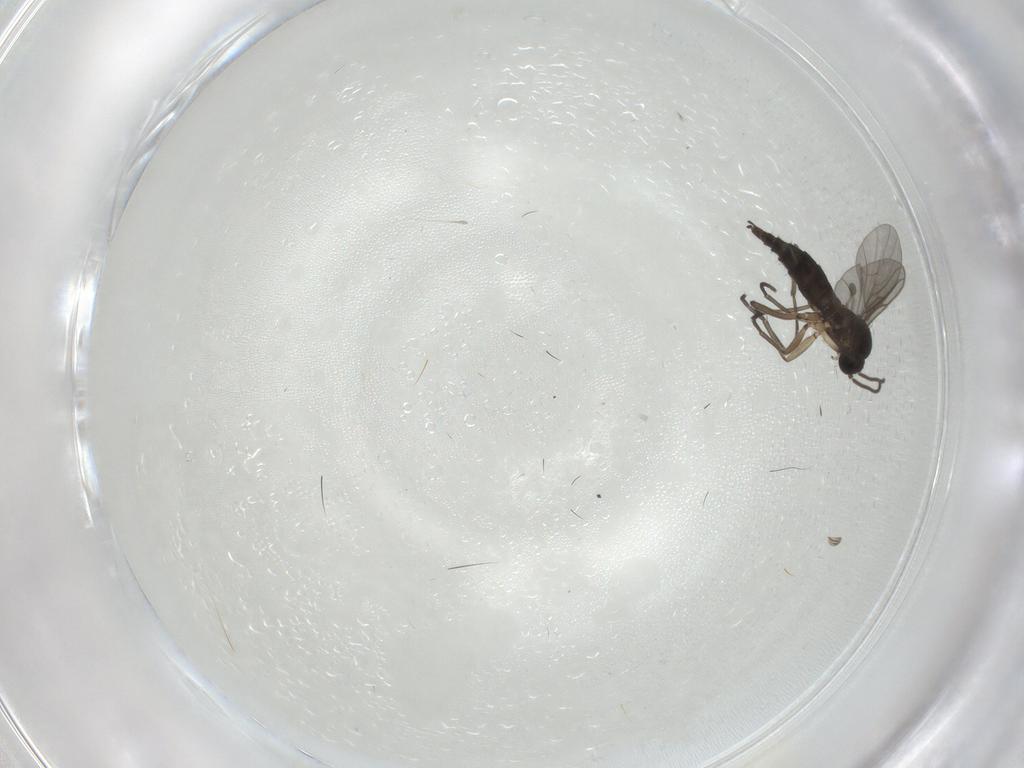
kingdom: Animalia
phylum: Arthropoda
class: Insecta
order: Diptera
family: Sciaridae
